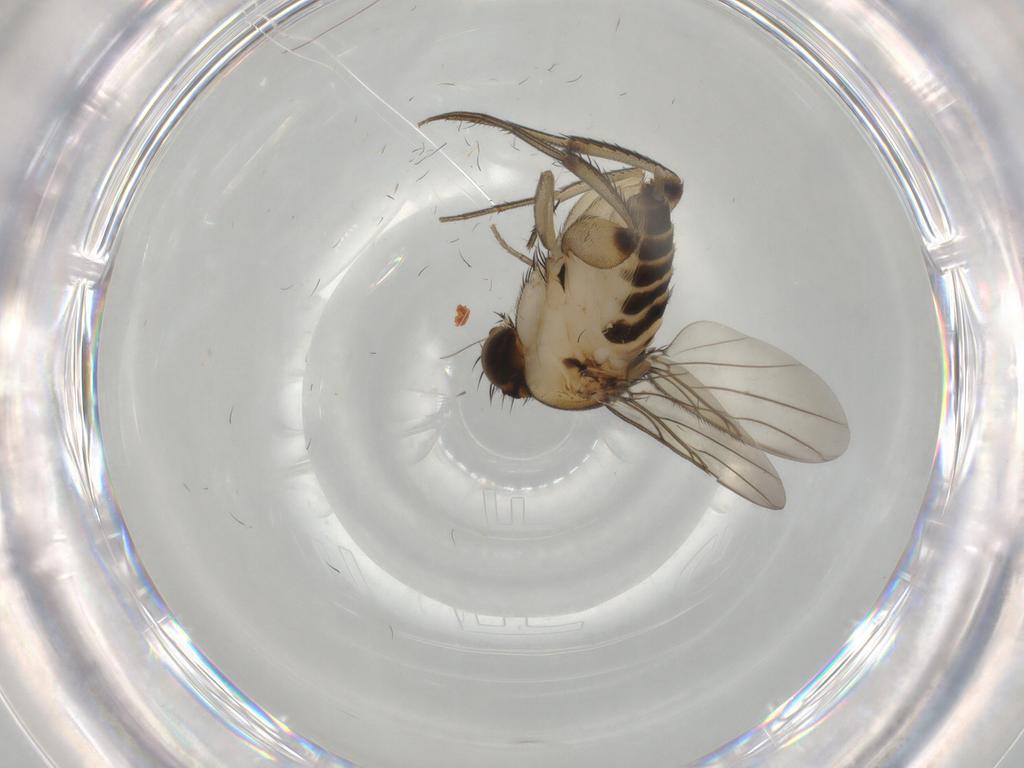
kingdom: Animalia
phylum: Arthropoda
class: Insecta
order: Diptera
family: Phoridae
